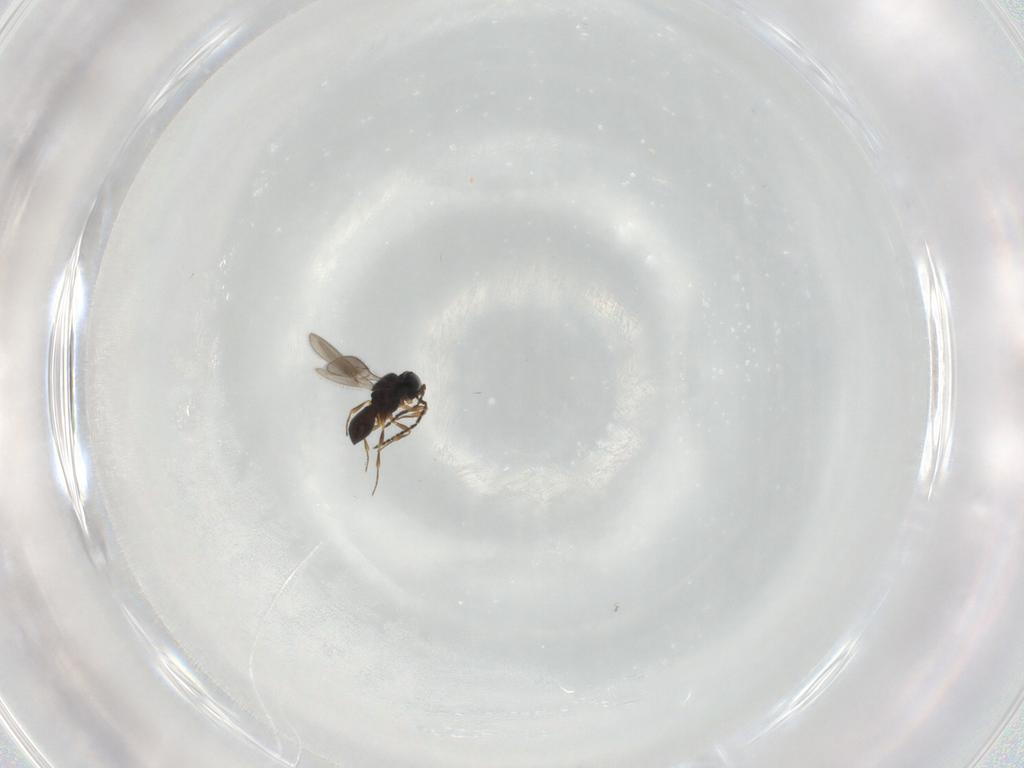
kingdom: Animalia
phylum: Arthropoda
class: Insecta
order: Hymenoptera
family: Scelionidae
